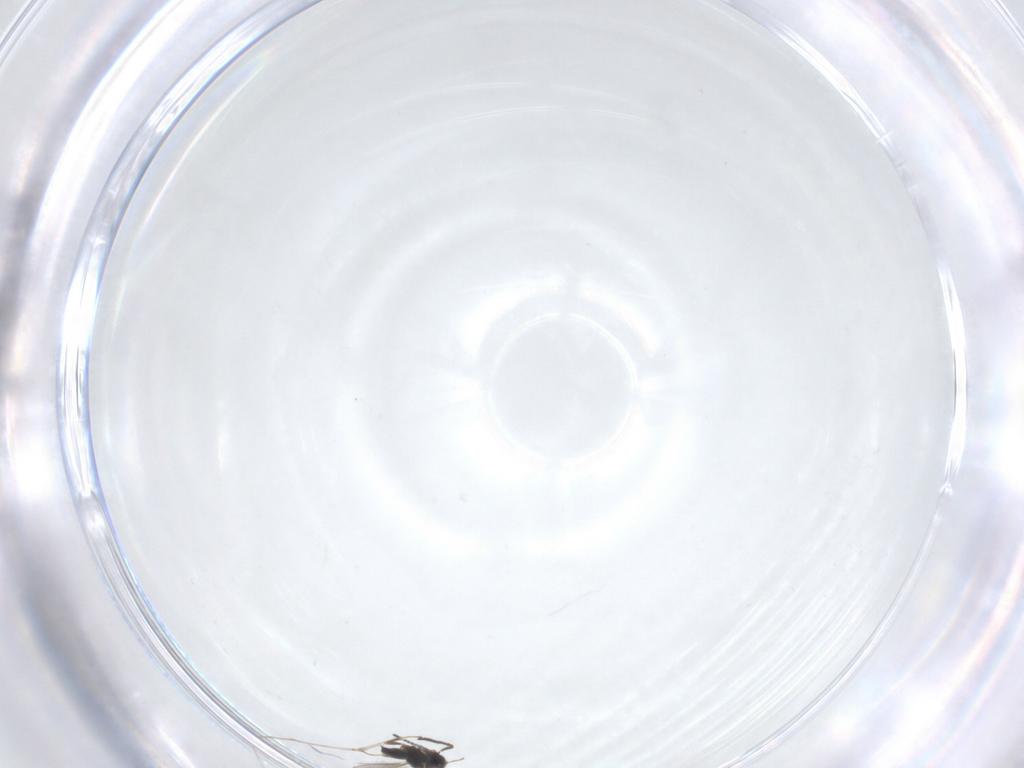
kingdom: Animalia
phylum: Arthropoda
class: Insecta
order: Hymenoptera
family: Scelionidae
